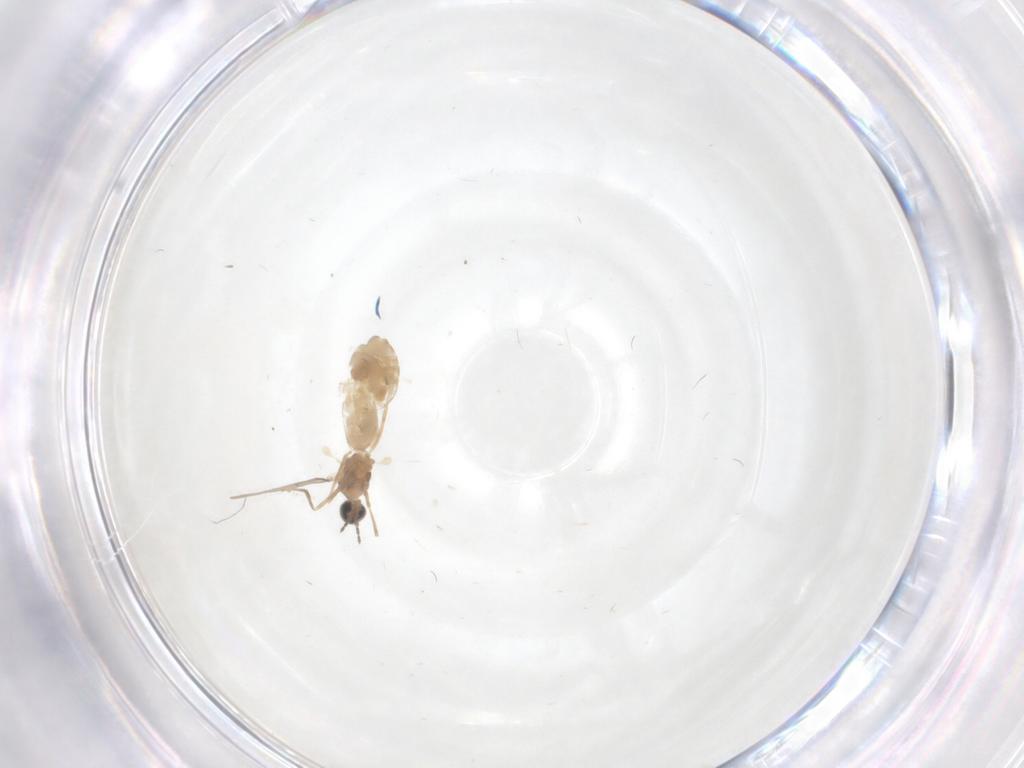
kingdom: Animalia
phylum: Arthropoda
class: Insecta
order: Diptera
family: Cecidomyiidae
